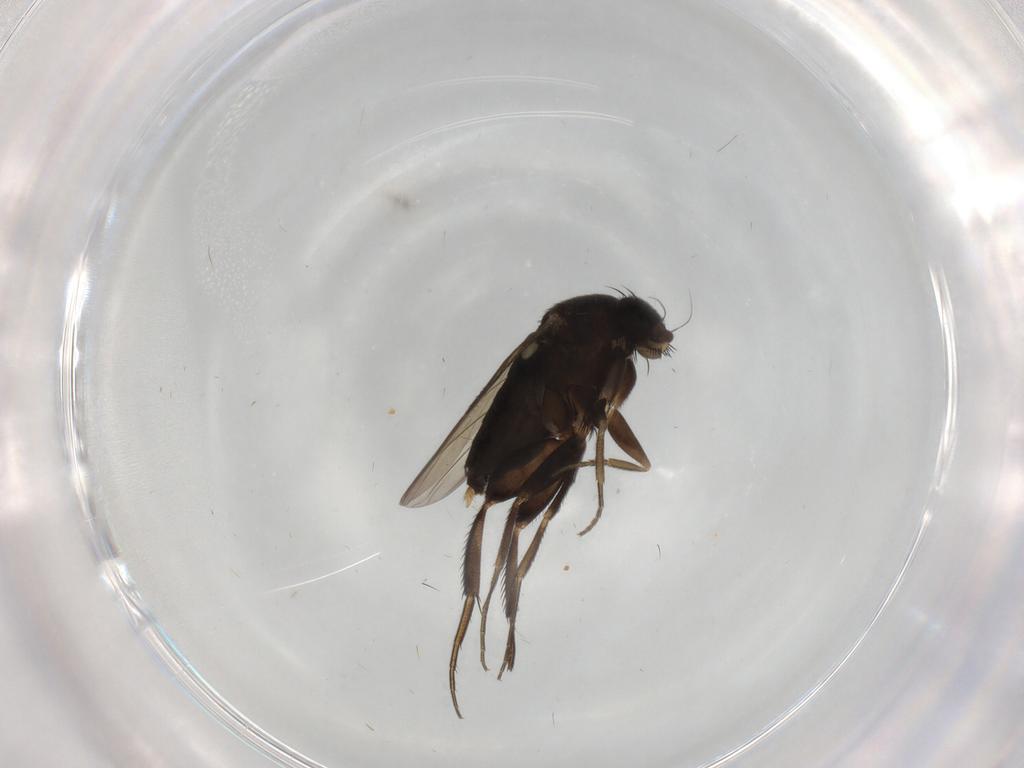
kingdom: Animalia
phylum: Arthropoda
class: Insecta
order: Diptera
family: Phoridae
